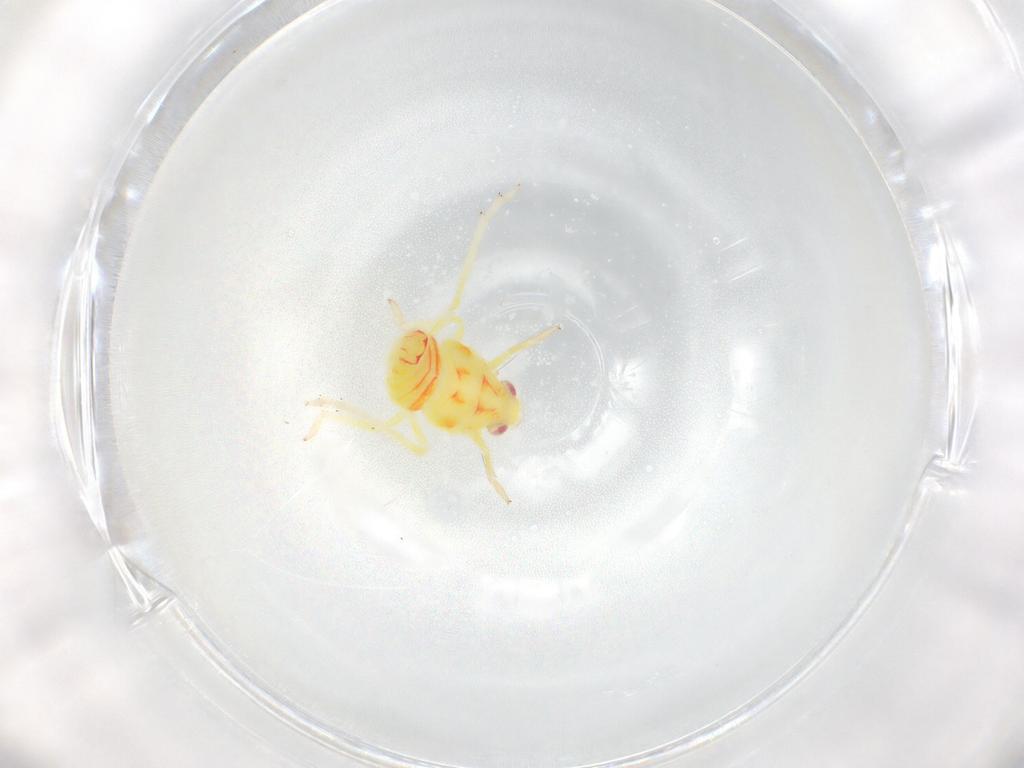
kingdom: Animalia
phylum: Arthropoda
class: Insecta
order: Hemiptera
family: Tropiduchidae
